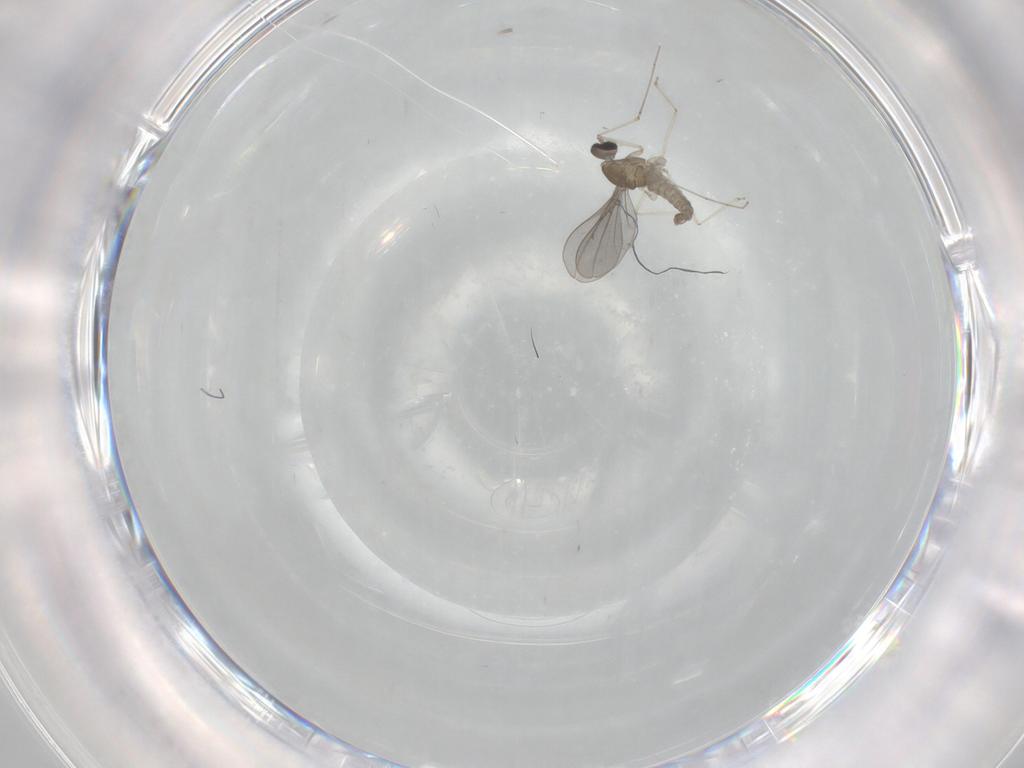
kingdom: Animalia
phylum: Arthropoda
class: Insecta
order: Diptera
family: Cecidomyiidae
